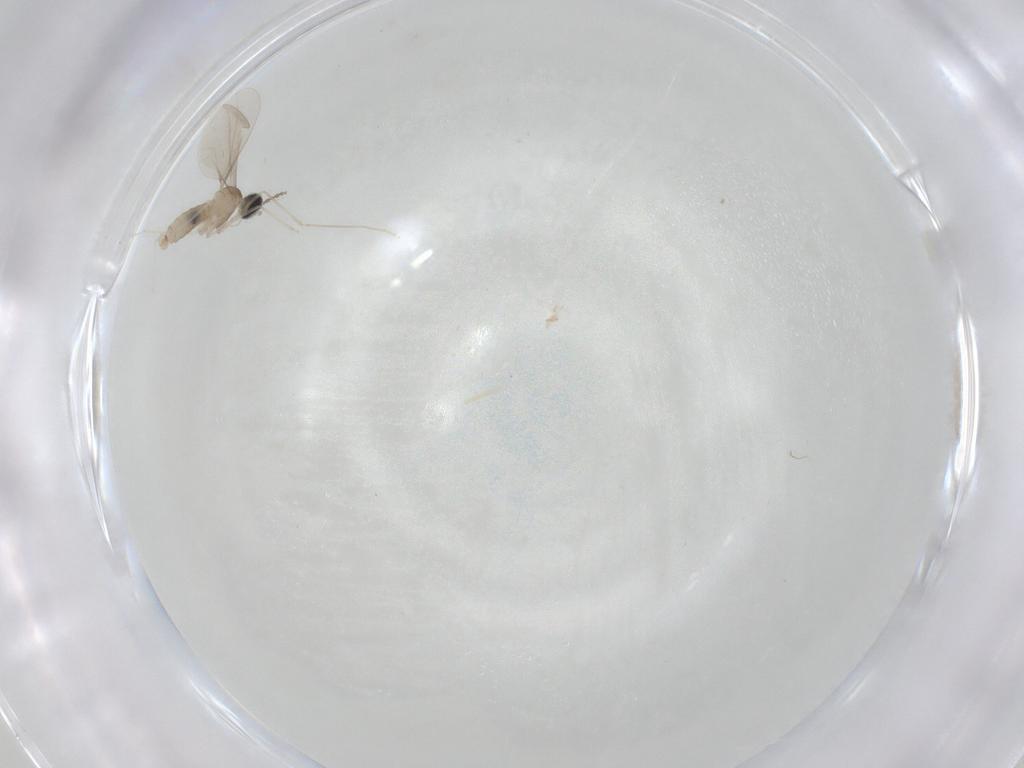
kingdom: Animalia
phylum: Arthropoda
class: Insecta
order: Diptera
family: Cecidomyiidae
